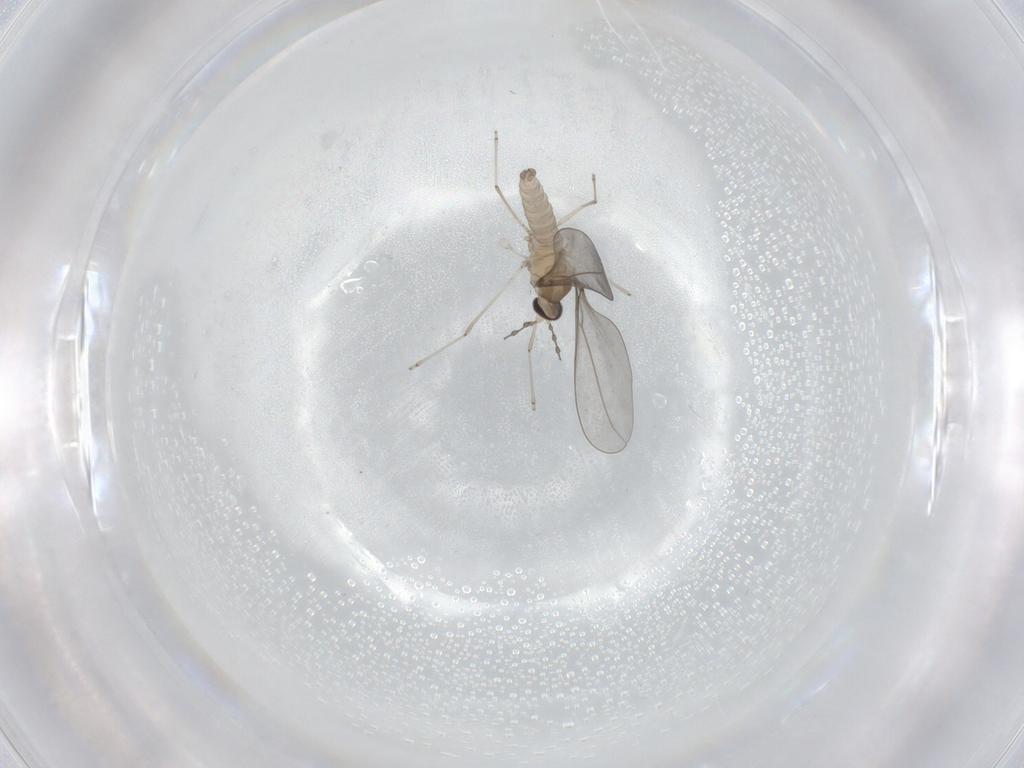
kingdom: Animalia
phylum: Arthropoda
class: Insecta
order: Diptera
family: Cecidomyiidae
